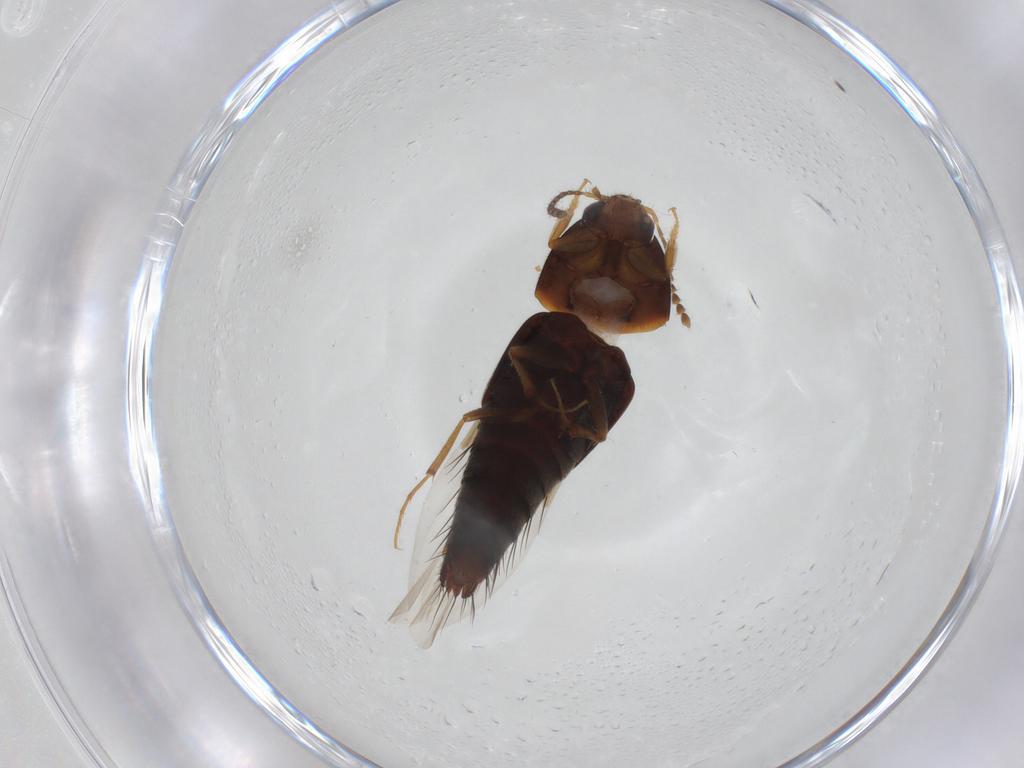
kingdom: Animalia
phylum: Arthropoda
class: Insecta
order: Coleoptera
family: Staphylinidae
